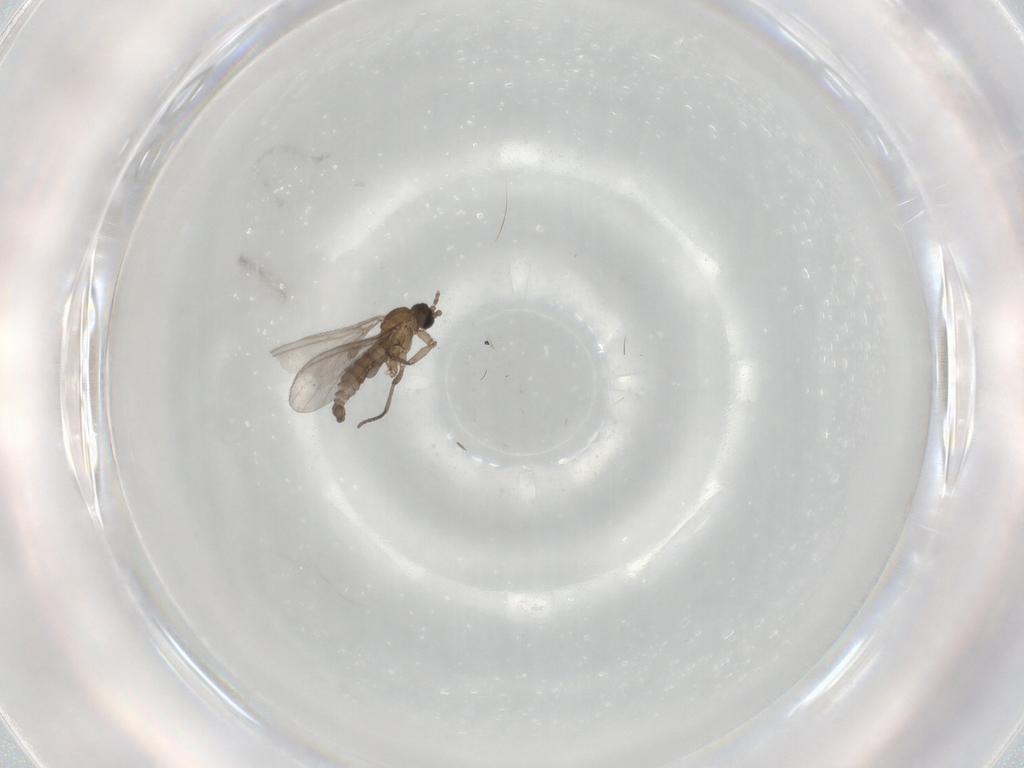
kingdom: Animalia
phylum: Arthropoda
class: Insecta
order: Diptera
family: Sciaridae
